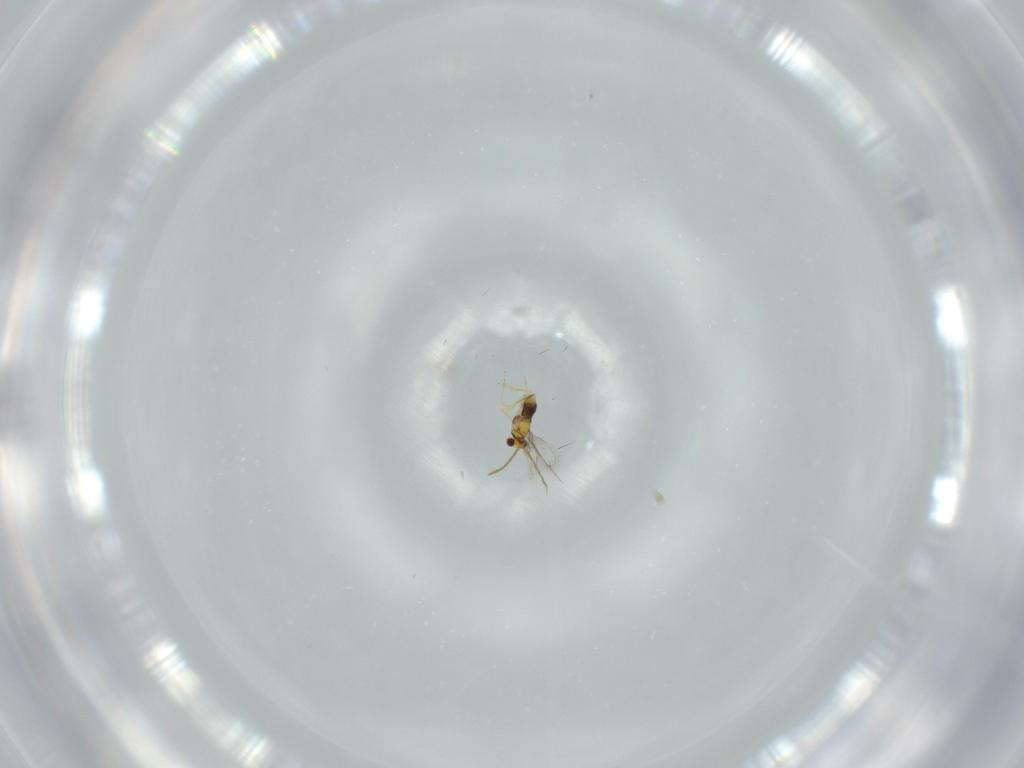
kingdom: Animalia
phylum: Arthropoda
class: Insecta
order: Hymenoptera
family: Aphelinidae
